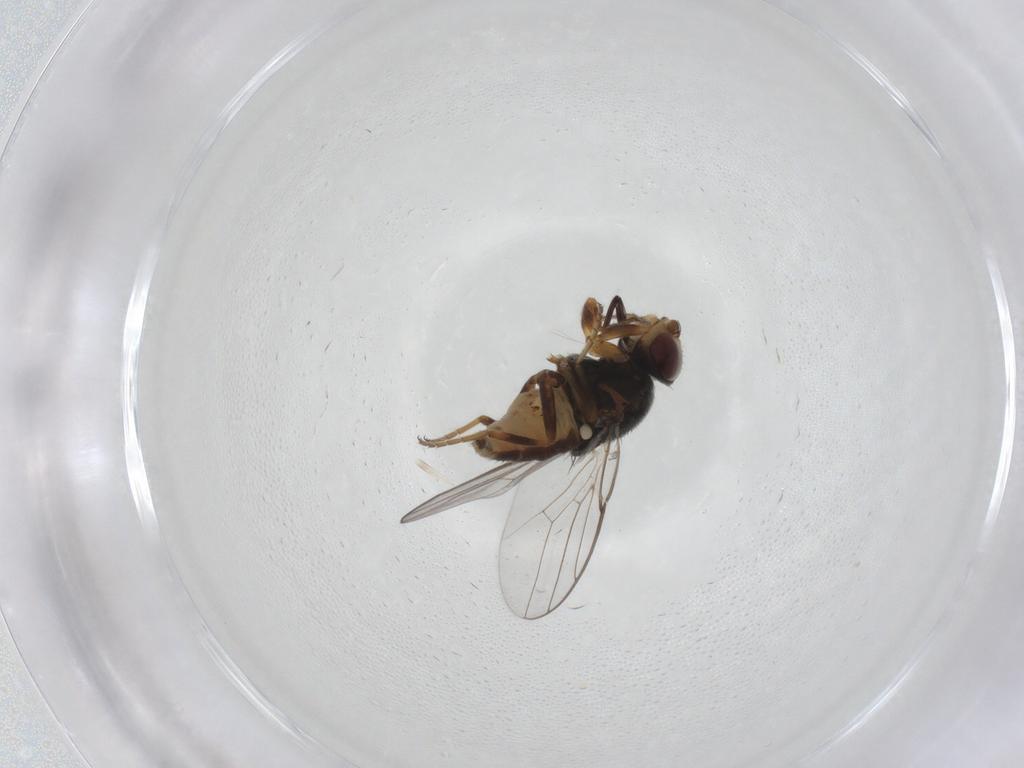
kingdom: Animalia
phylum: Arthropoda
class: Insecta
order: Diptera
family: Chloropidae
